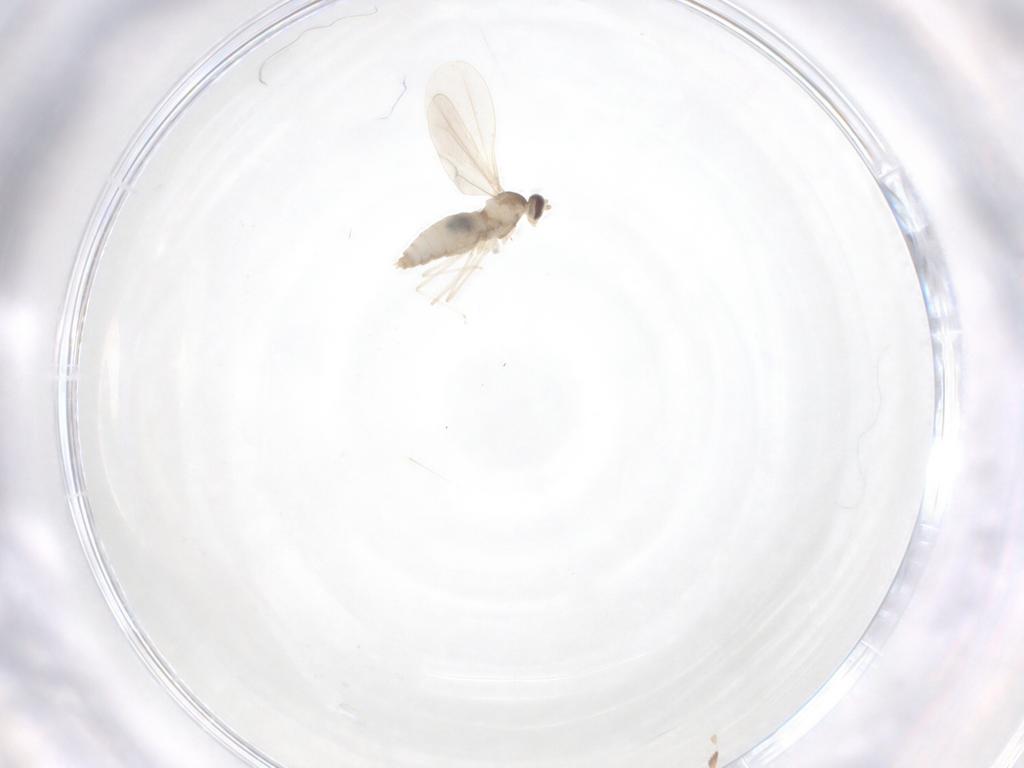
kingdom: Animalia
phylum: Arthropoda
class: Insecta
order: Diptera
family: Cecidomyiidae
